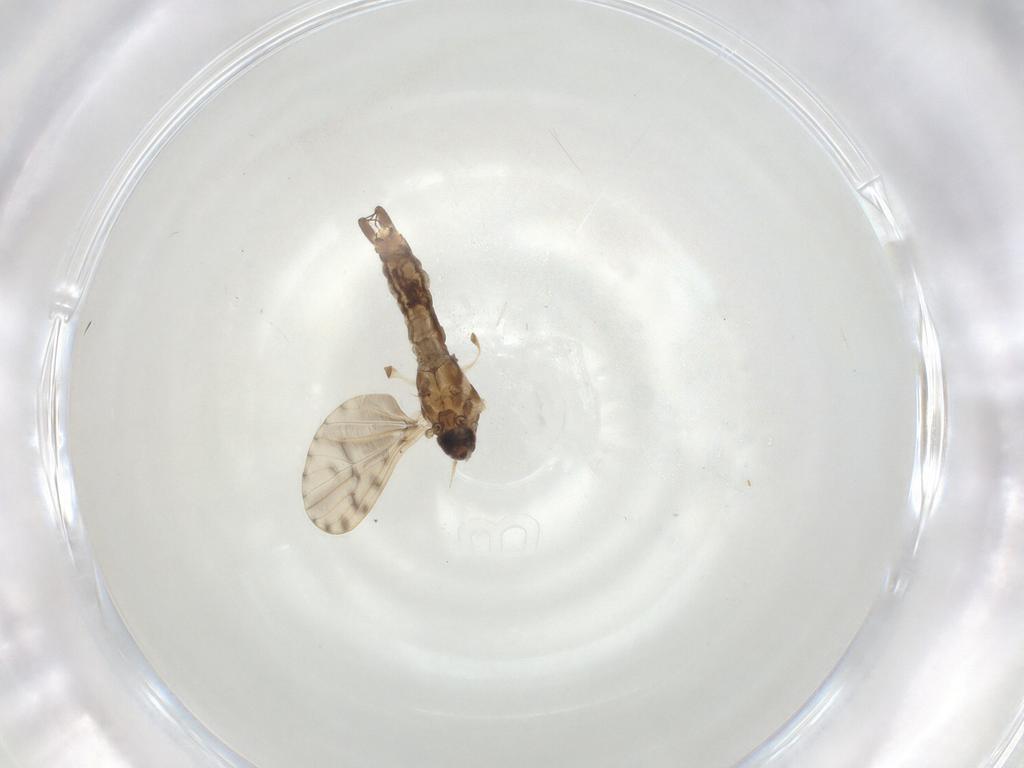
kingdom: Animalia
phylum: Arthropoda
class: Insecta
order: Diptera
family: Limoniidae
